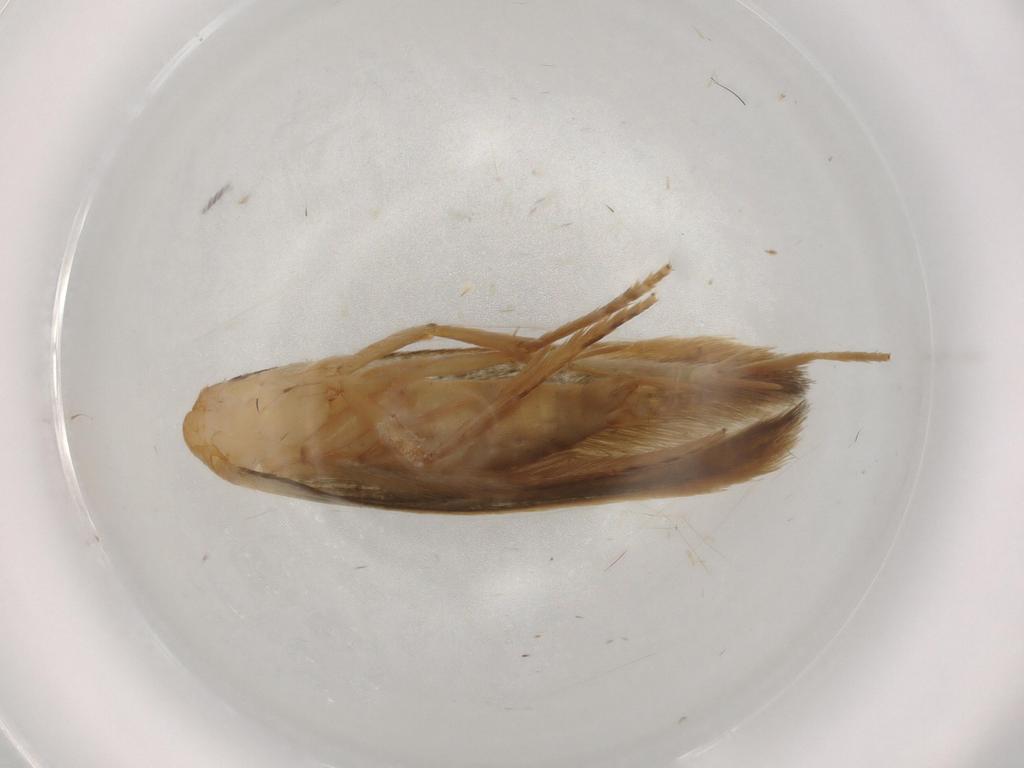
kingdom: Animalia
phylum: Arthropoda
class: Insecta
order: Lepidoptera
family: Tineidae
